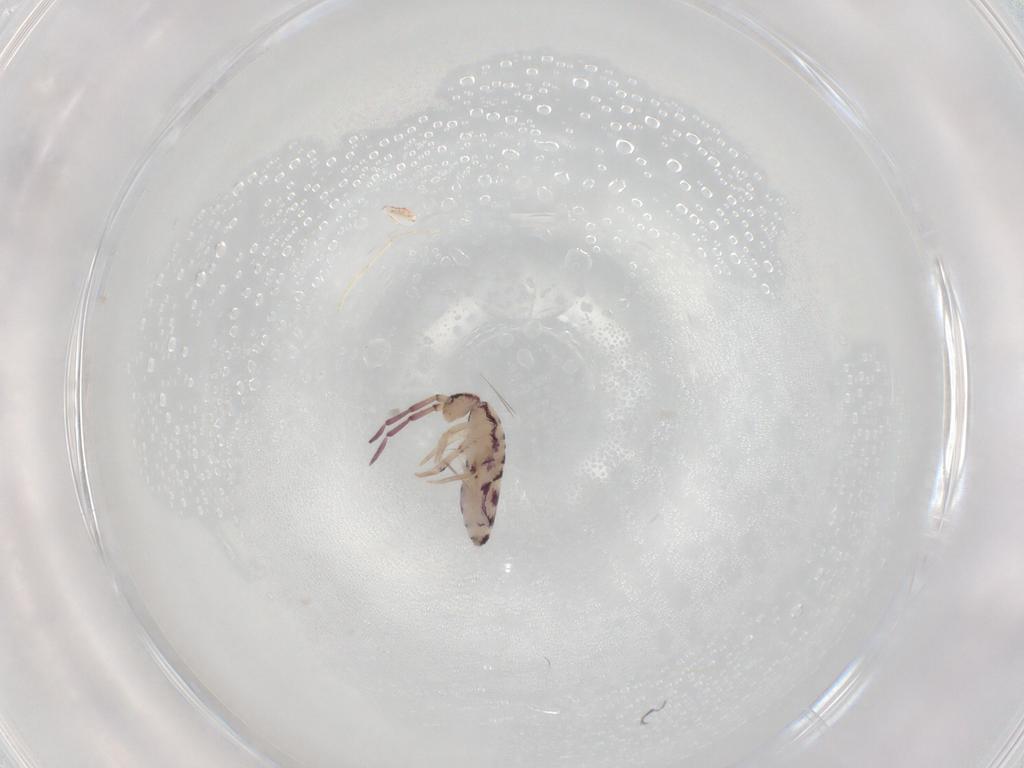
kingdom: Animalia
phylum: Arthropoda
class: Collembola
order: Entomobryomorpha
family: Entomobryidae
